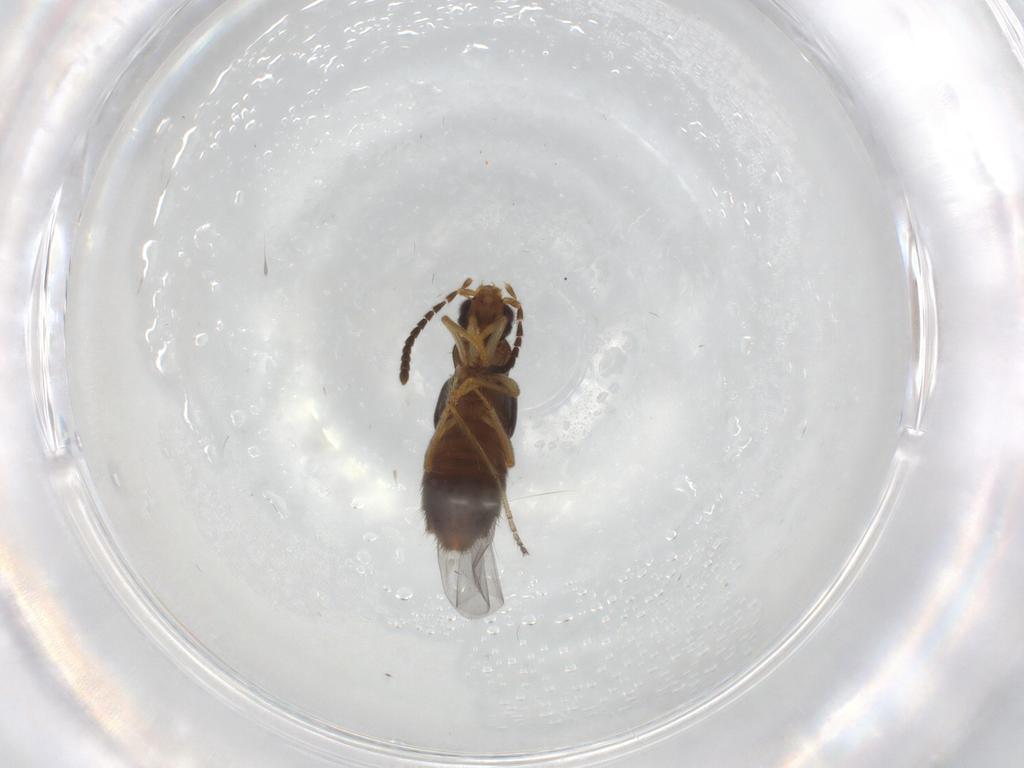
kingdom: Animalia
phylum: Arthropoda
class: Insecta
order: Coleoptera
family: Staphylinidae
